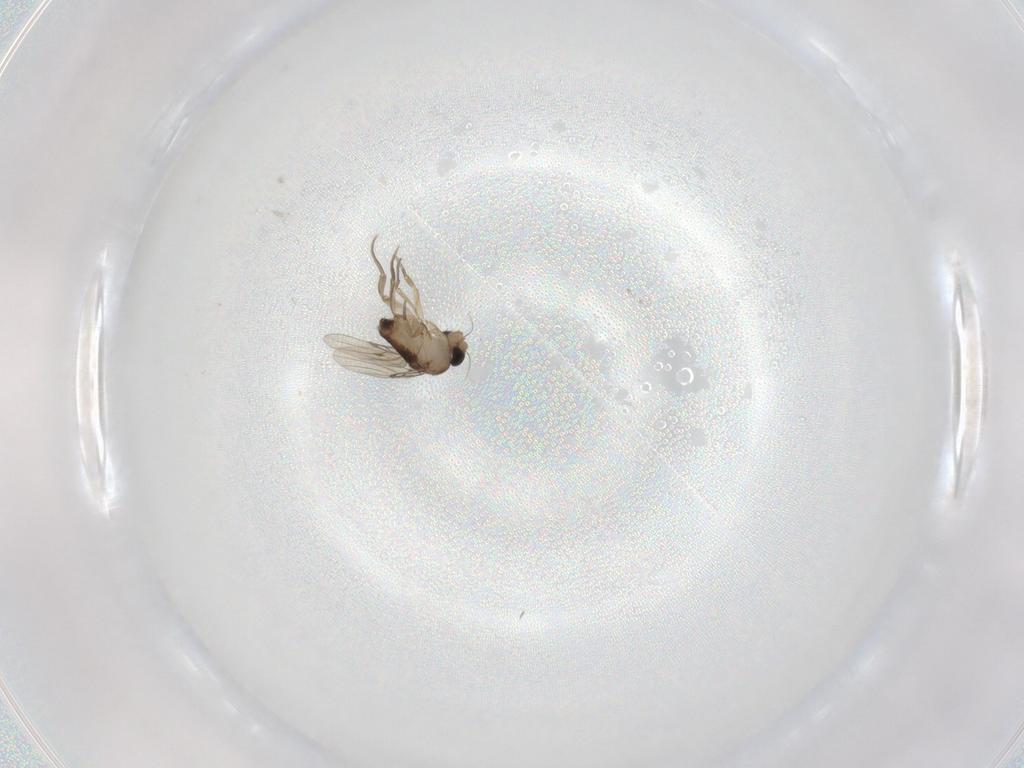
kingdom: Animalia
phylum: Arthropoda
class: Insecta
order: Diptera
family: Phoridae
